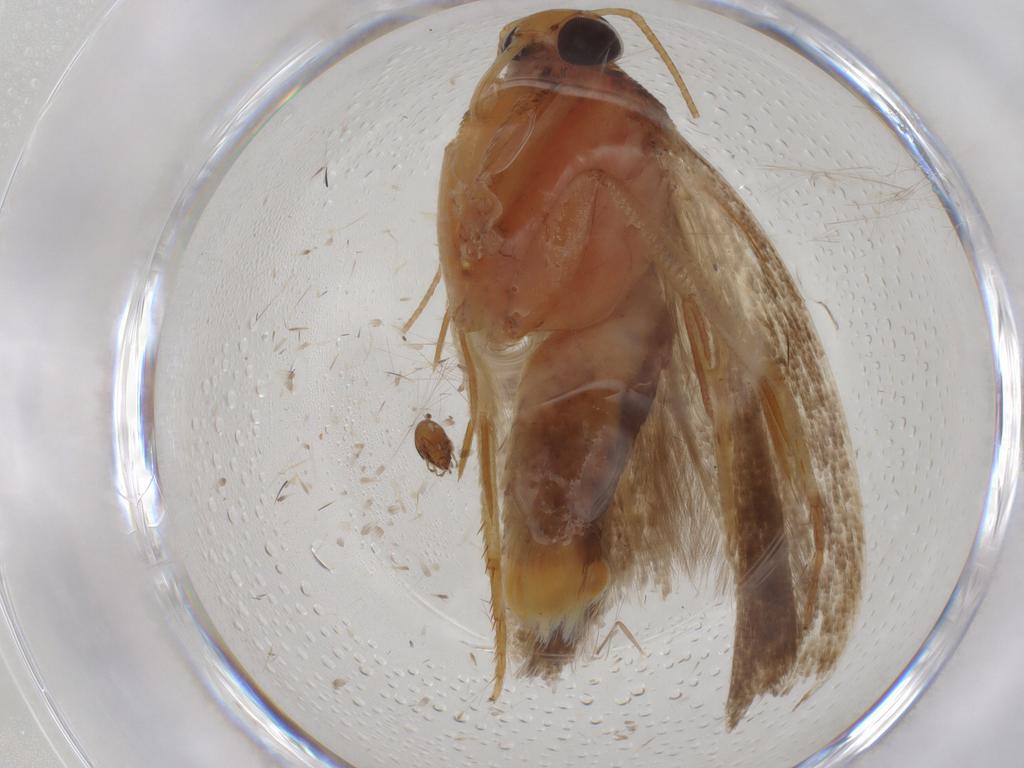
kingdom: Animalia
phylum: Arthropoda
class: Insecta
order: Lepidoptera
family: Gelechiidae
